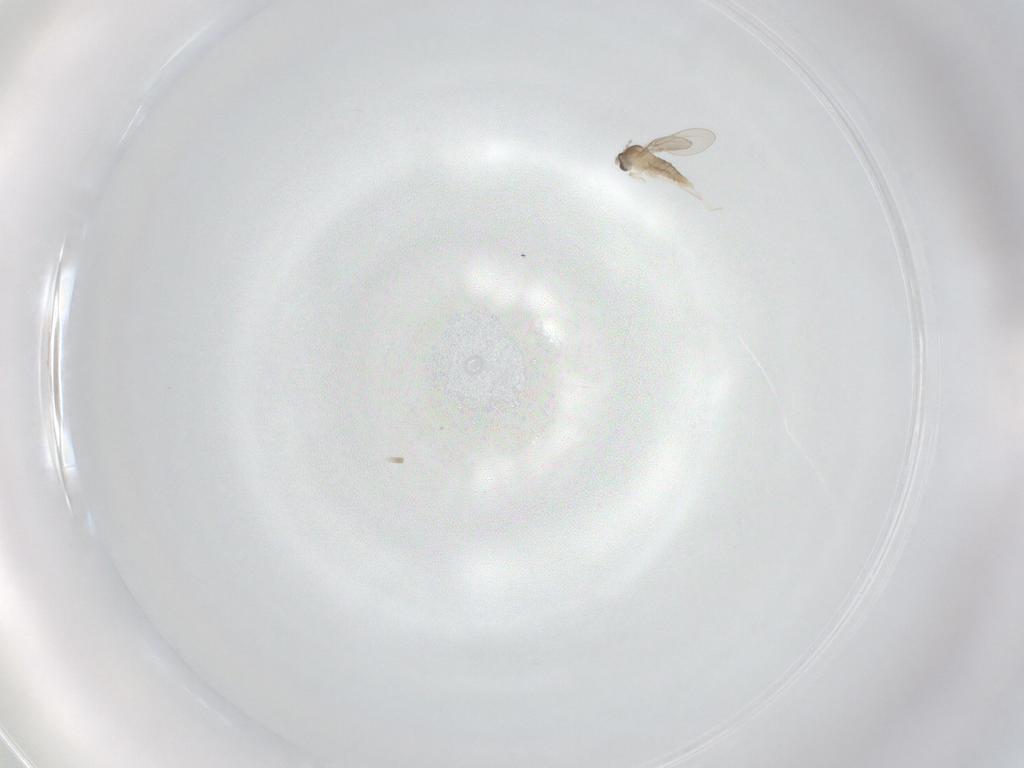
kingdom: Animalia
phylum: Arthropoda
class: Insecta
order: Diptera
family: Cecidomyiidae
